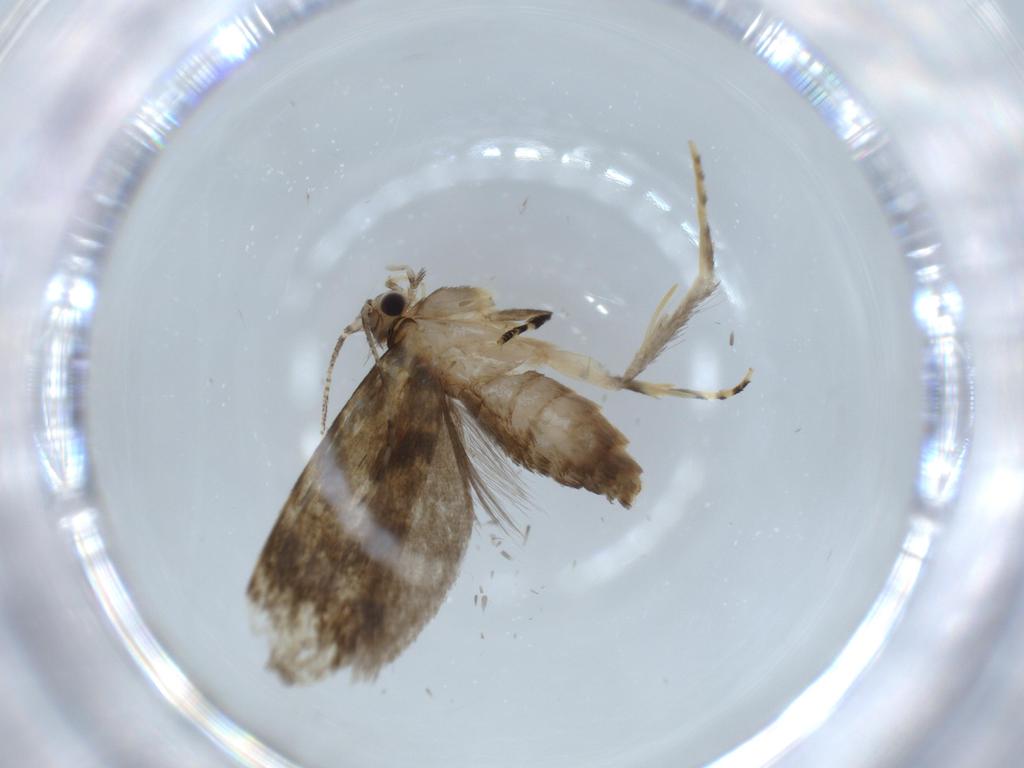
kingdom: Animalia
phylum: Arthropoda
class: Insecta
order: Lepidoptera
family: Tineidae
